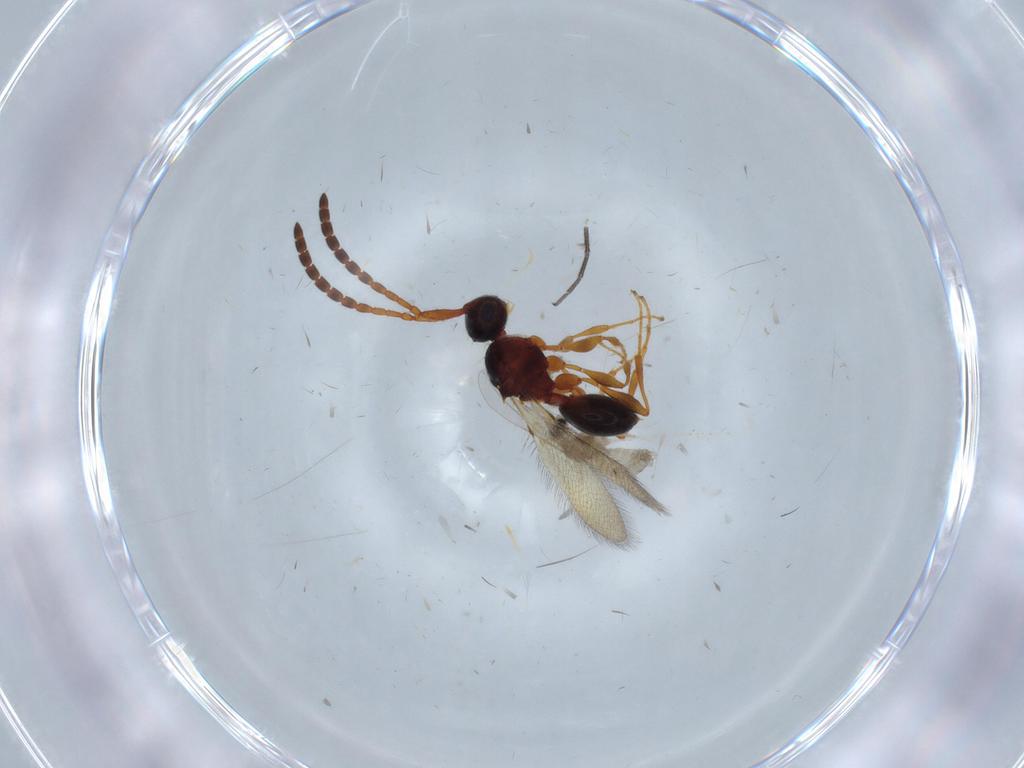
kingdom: Animalia
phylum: Arthropoda
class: Insecta
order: Hymenoptera
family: Diapriidae
